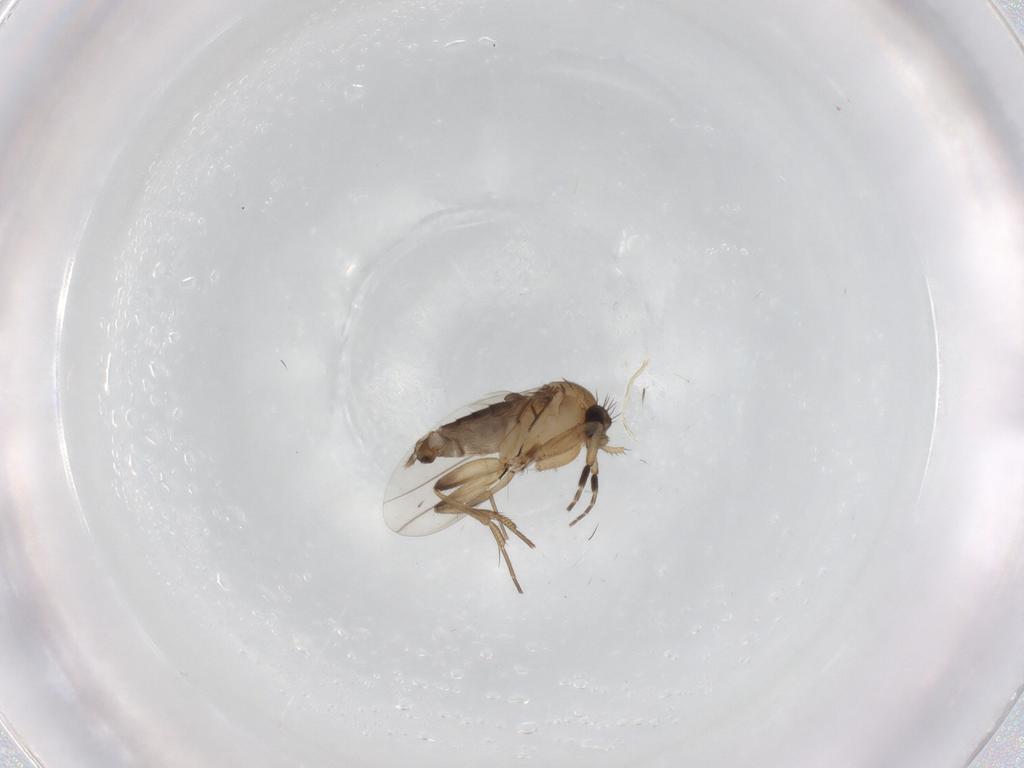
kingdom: Animalia
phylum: Arthropoda
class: Insecta
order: Diptera
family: Phoridae
